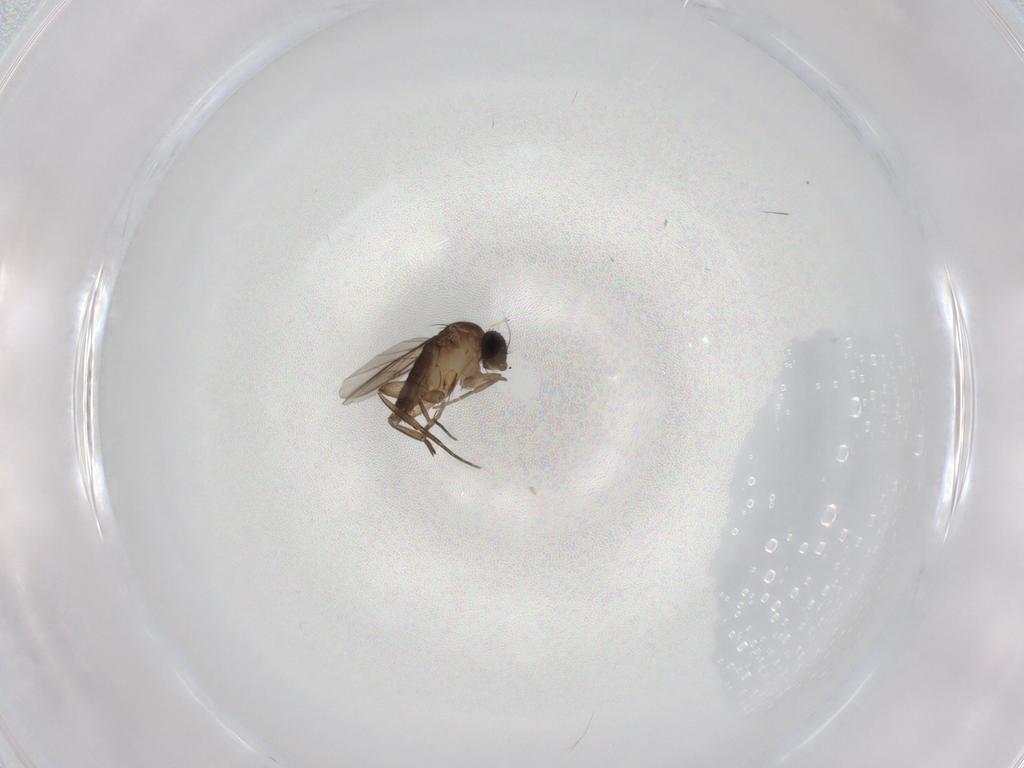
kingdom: Animalia
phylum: Arthropoda
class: Insecta
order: Diptera
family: Phoridae
